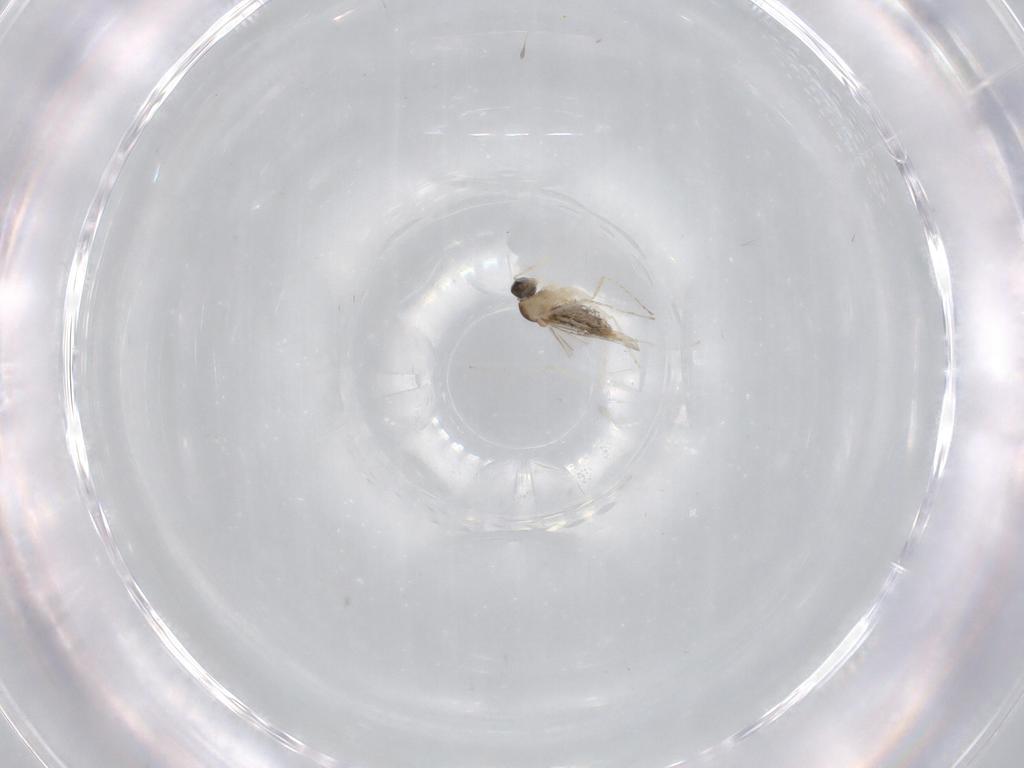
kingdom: Animalia
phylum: Arthropoda
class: Insecta
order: Diptera
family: Cecidomyiidae
